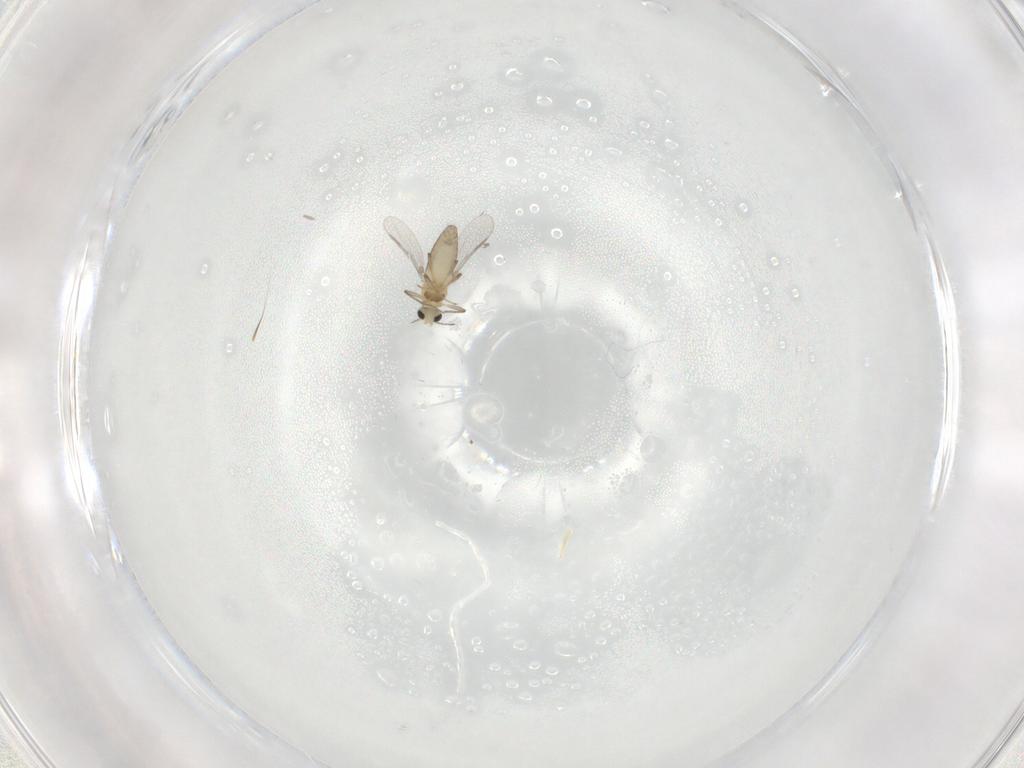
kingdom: Animalia
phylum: Arthropoda
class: Insecta
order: Diptera
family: Chironomidae
